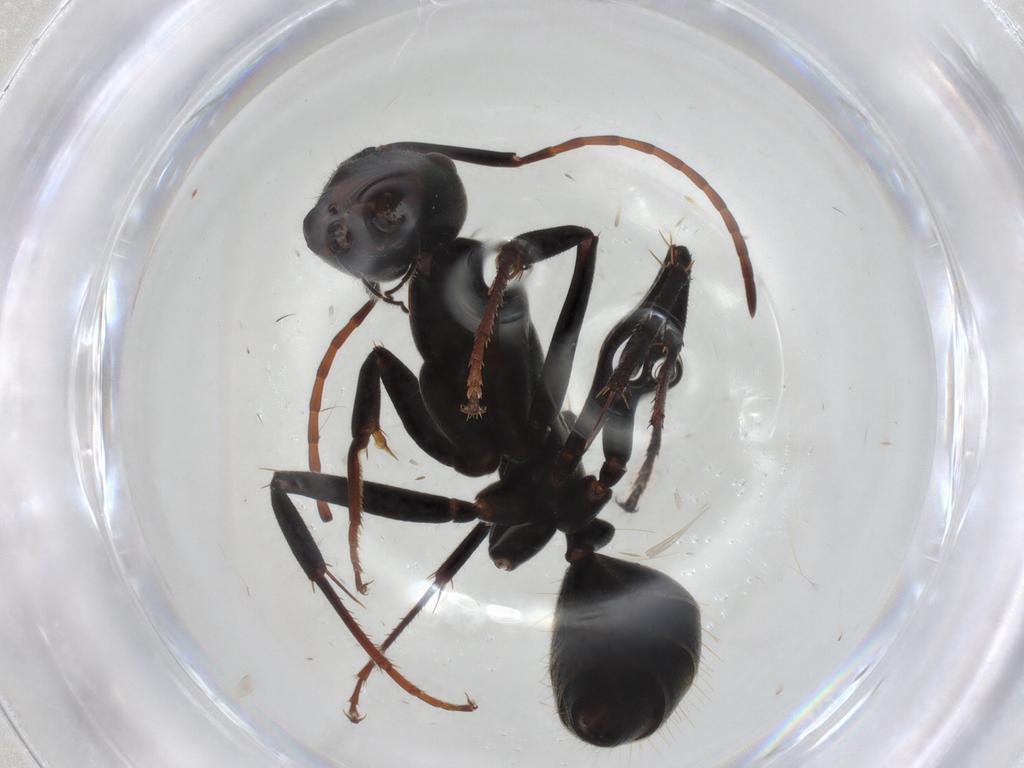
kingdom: Animalia
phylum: Arthropoda
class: Insecta
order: Hymenoptera
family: Formicidae
